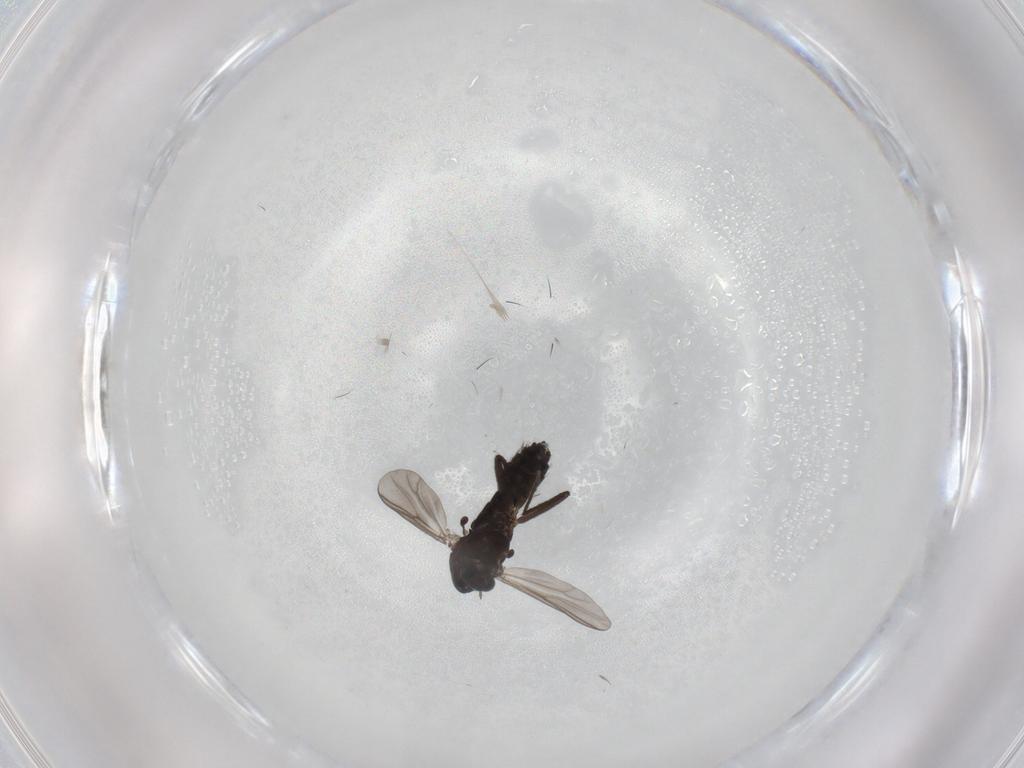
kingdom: Animalia
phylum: Arthropoda
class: Insecta
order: Diptera
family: Chironomidae
